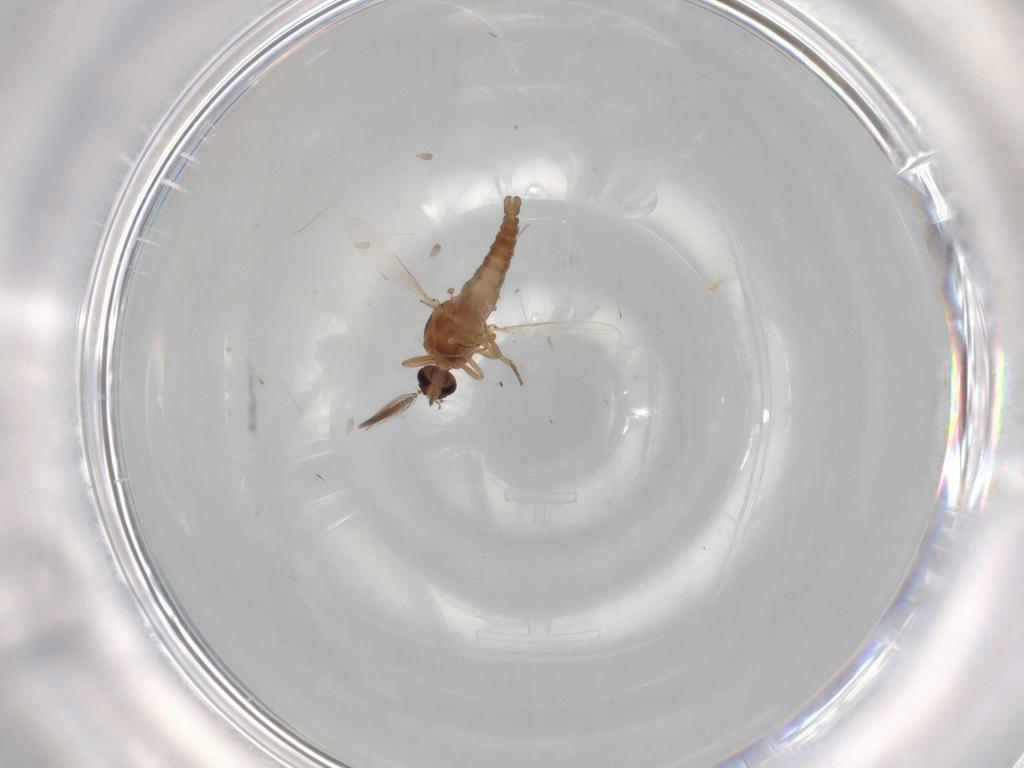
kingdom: Animalia
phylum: Arthropoda
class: Insecta
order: Diptera
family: Ceratopogonidae
